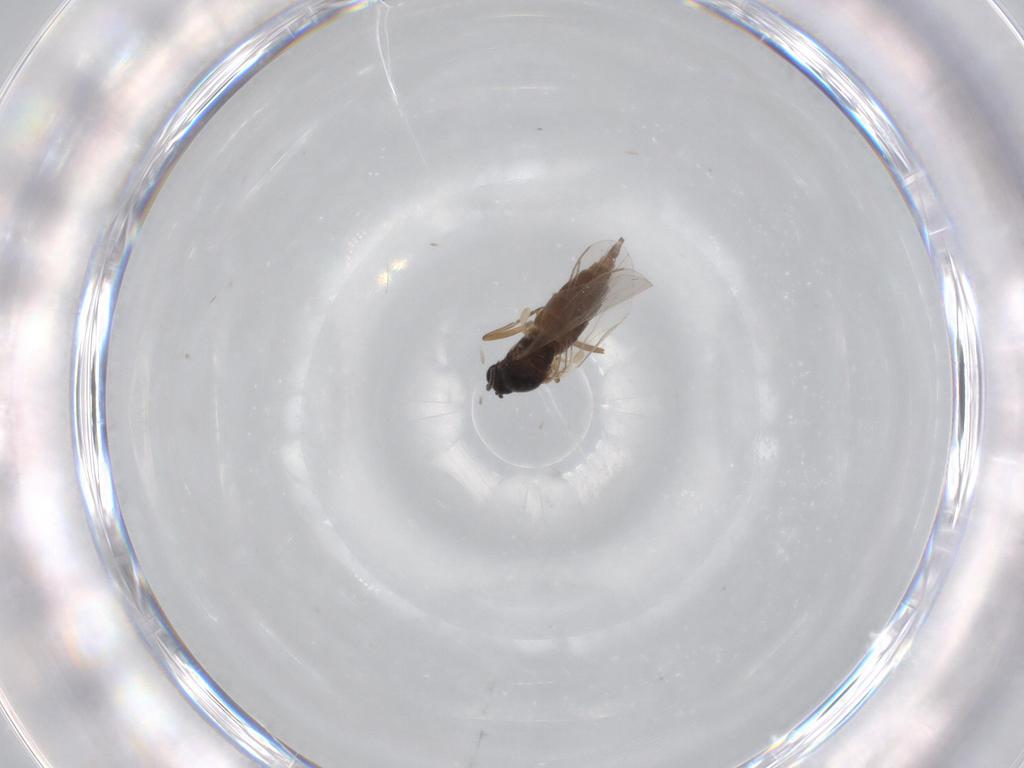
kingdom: Animalia
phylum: Arthropoda
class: Insecta
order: Diptera
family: Sciaridae
